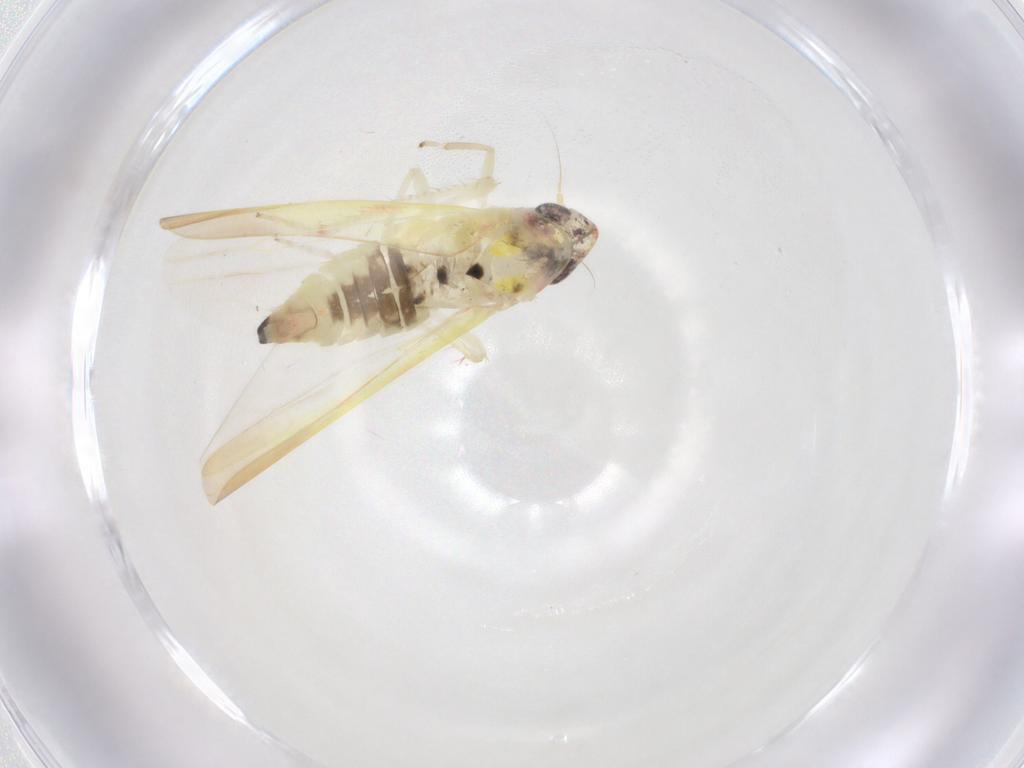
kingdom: Animalia
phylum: Arthropoda
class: Insecta
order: Hemiptera
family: Cicadellidae
